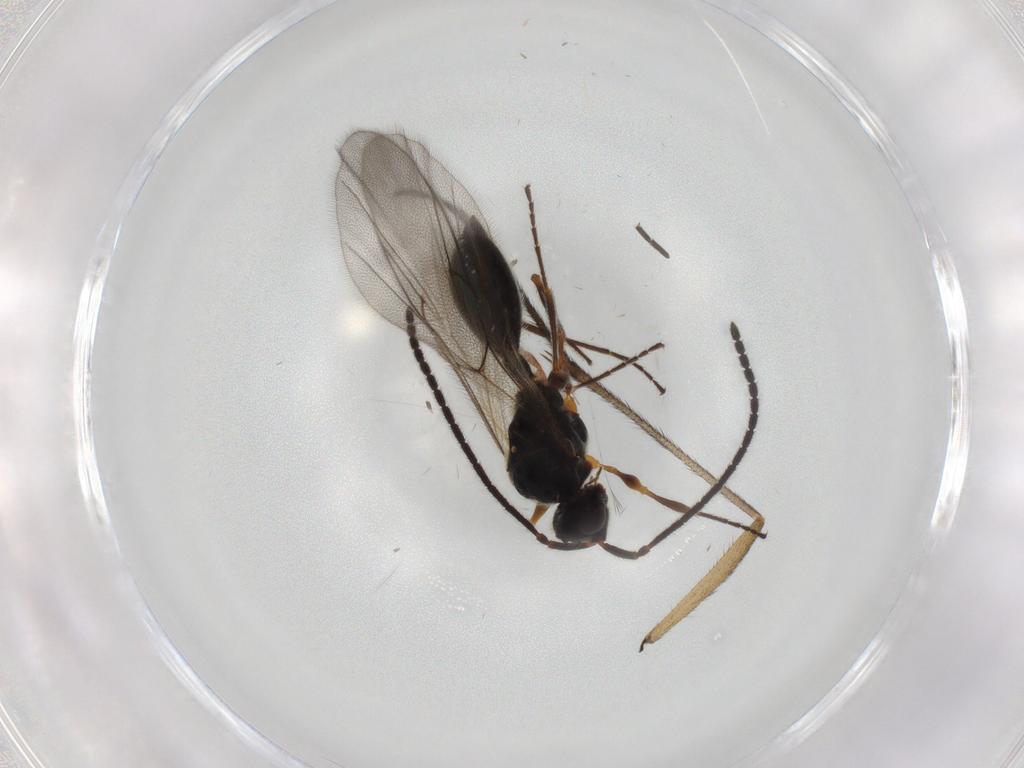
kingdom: Animalia
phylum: Arthropoda
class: Insecta
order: Hymenoptera
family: Diapriidae
